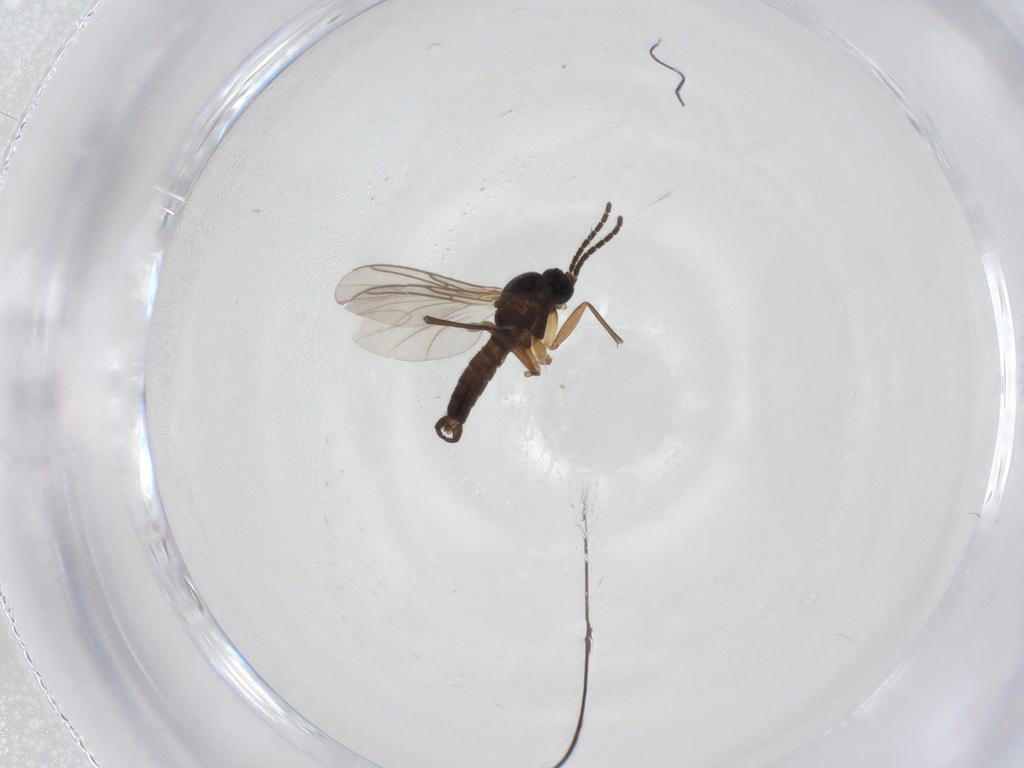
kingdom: Animalia
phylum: Arthropoda
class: Insecta
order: Diptera
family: Sciaridae
